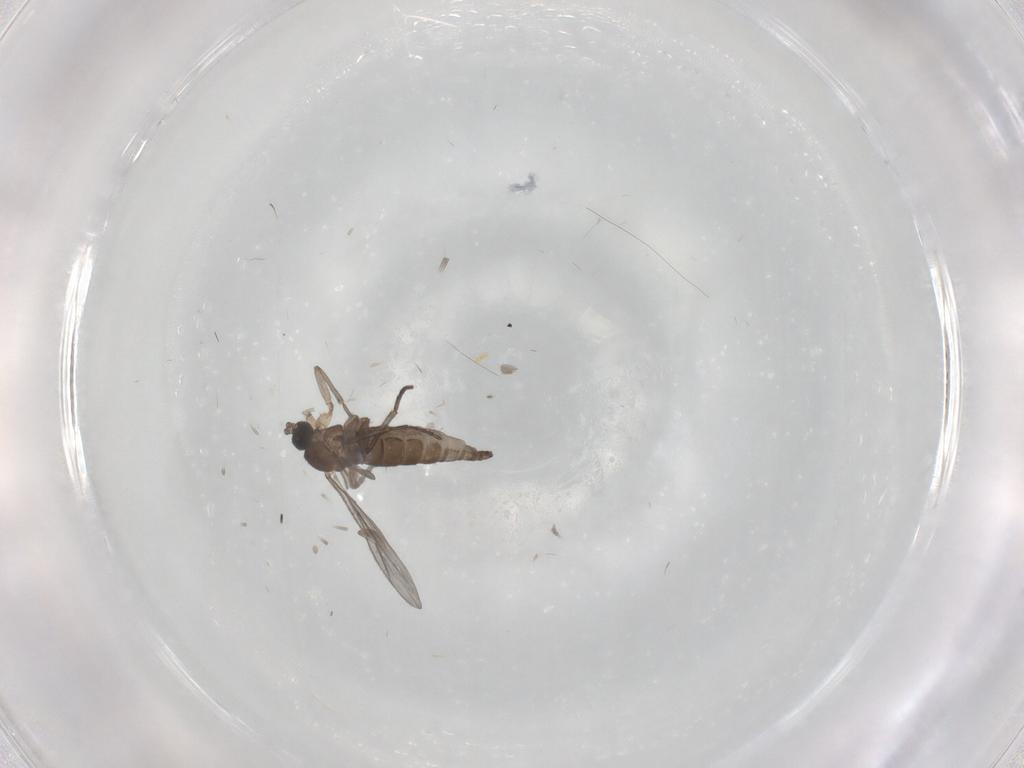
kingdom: Animalia
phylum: Arthropoda
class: Insecta
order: Diptera
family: Sciaridae
